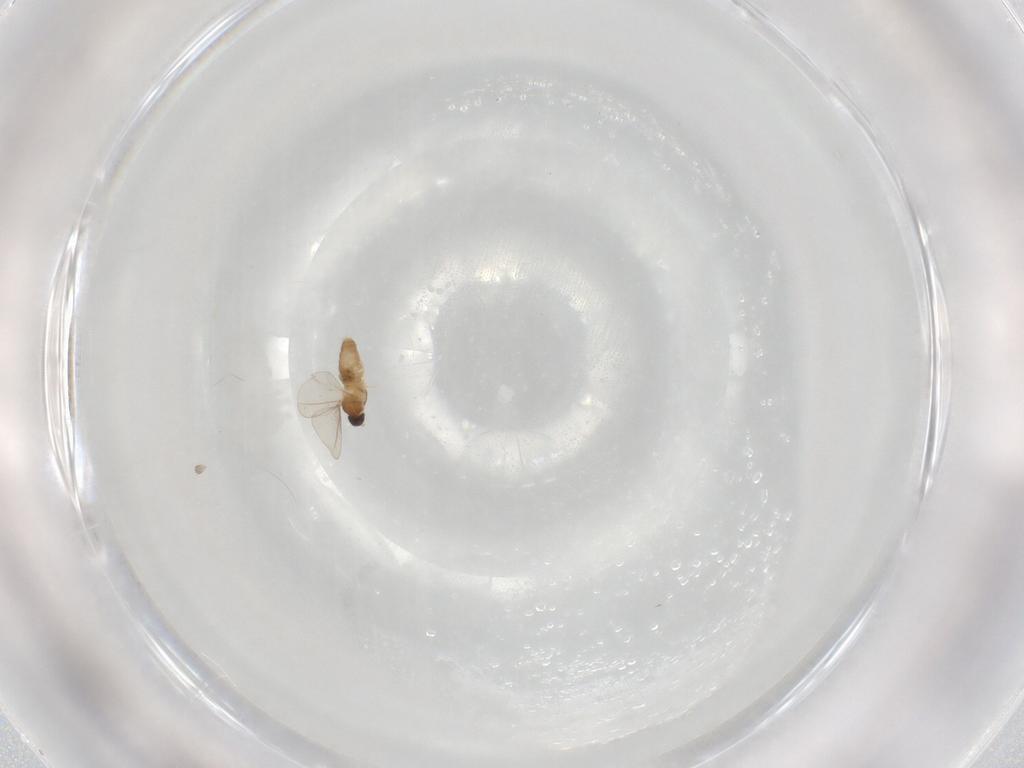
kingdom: Animalia
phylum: Arthropoda
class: Insecta
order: Diptera
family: Cecidomyiidae
